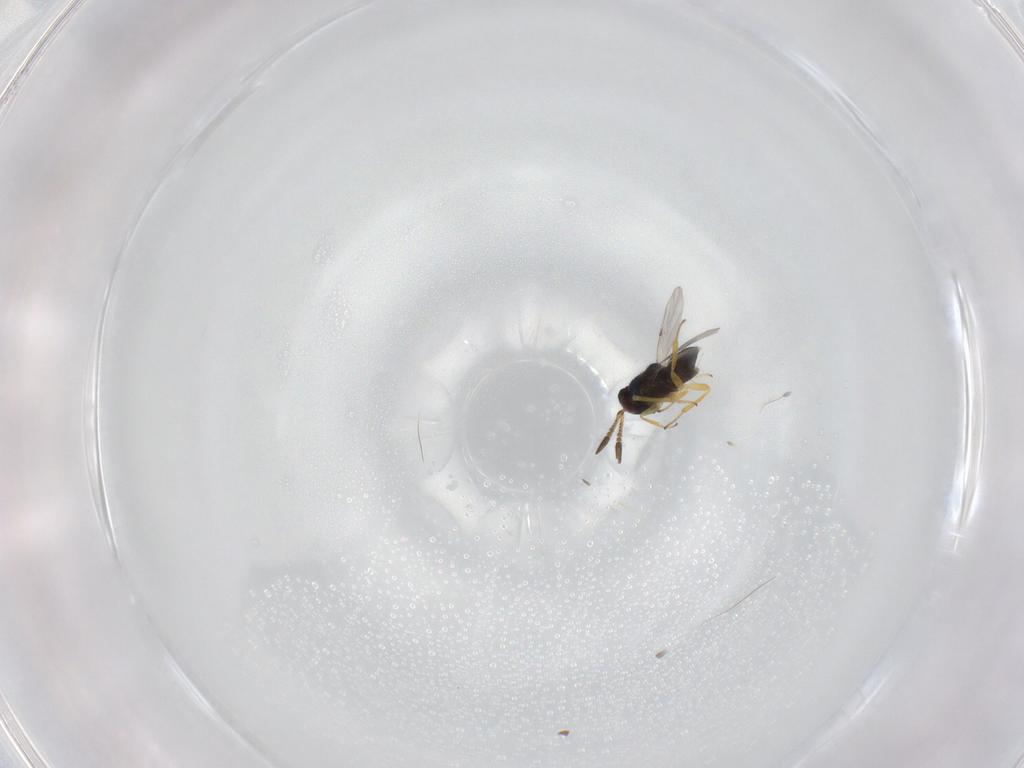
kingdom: Animalia
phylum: Arthropoda
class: Insecta
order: Hymenoptera
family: Encyrtidae
